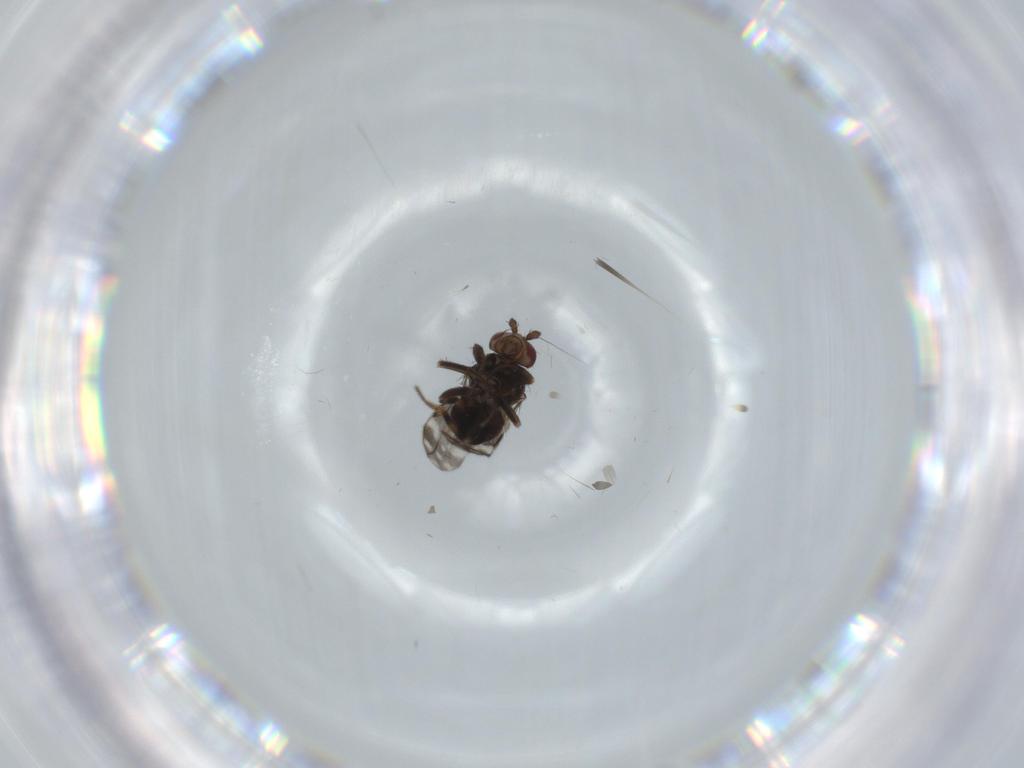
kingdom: Animalia
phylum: Arthropoda
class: Insecta
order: Diptera
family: Sphaeroceridae
